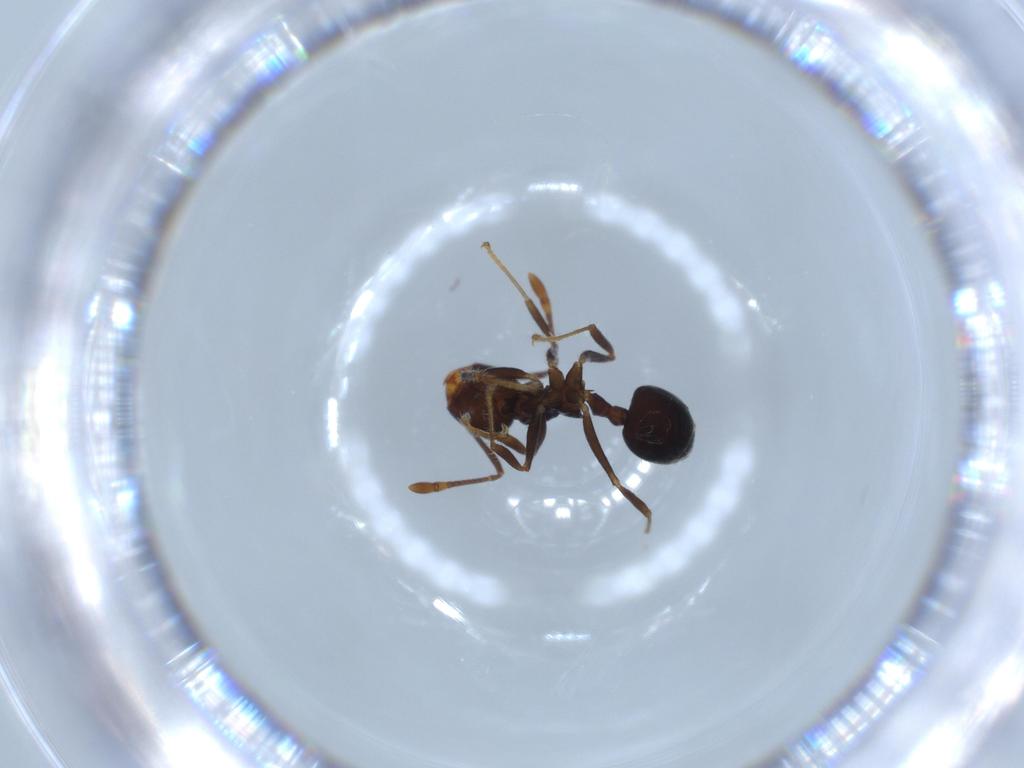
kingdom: Animalia
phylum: Arthropoda
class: Insecta
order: Hymenoptera
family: Formicidae
